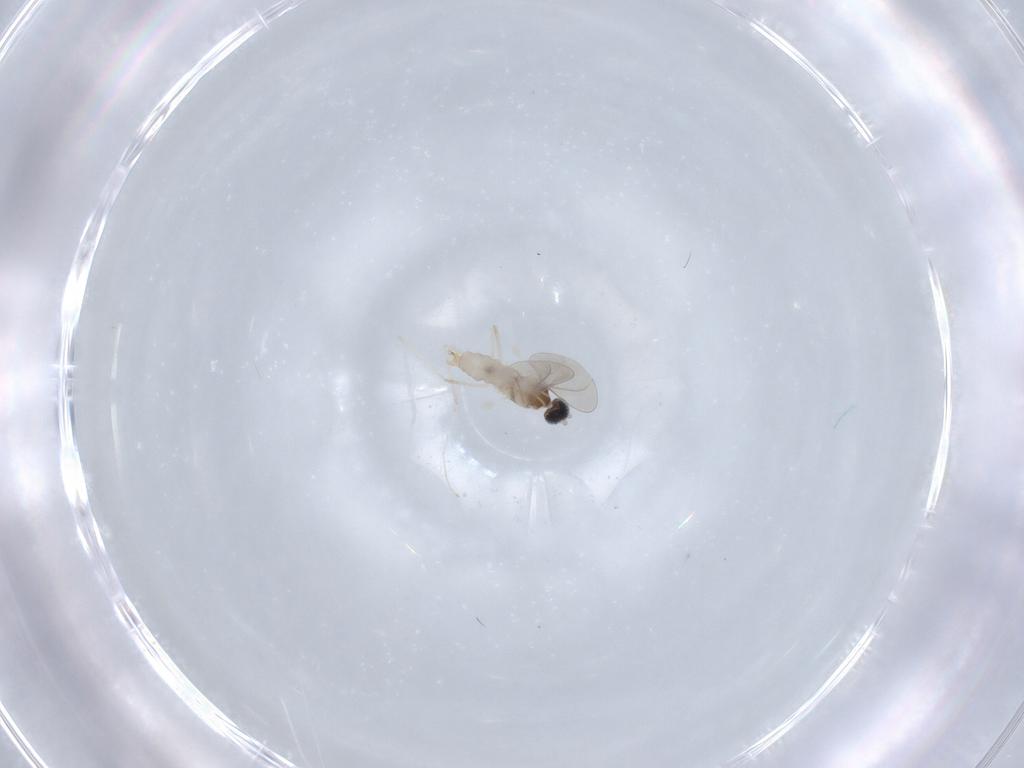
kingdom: Animalia
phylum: Arthropoda
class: Insecta
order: Diptera
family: Cecidomyiidae
